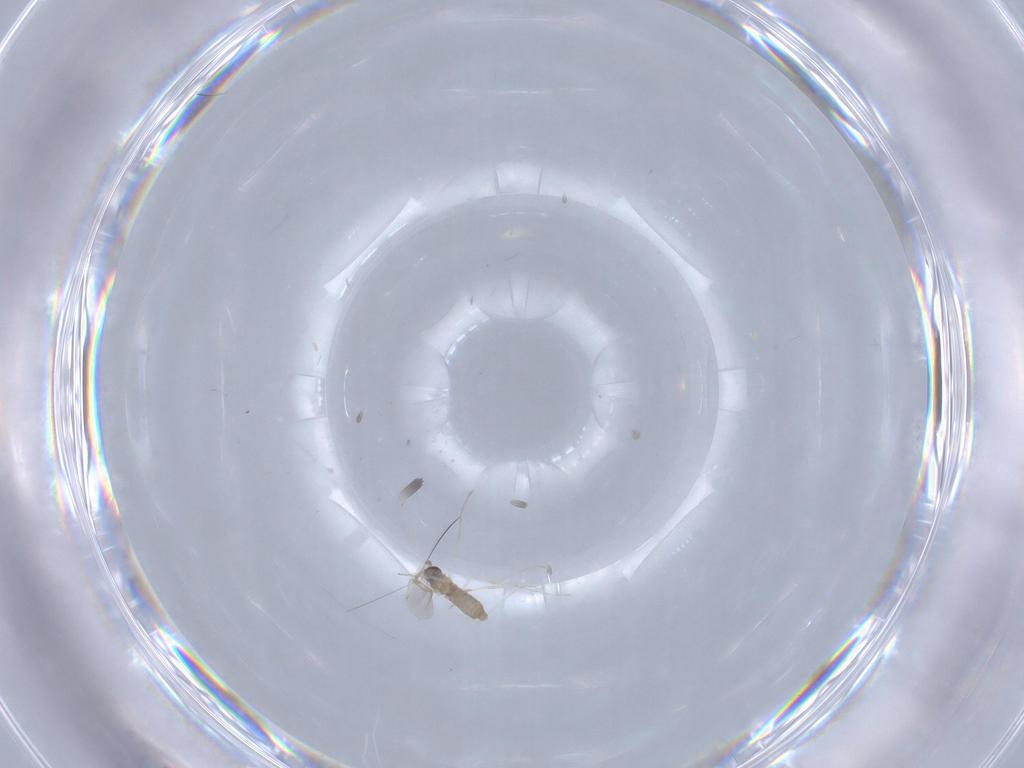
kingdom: Animalia
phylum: Arthropoda
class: Insecta
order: Diptera
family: Cecidomyiidae
